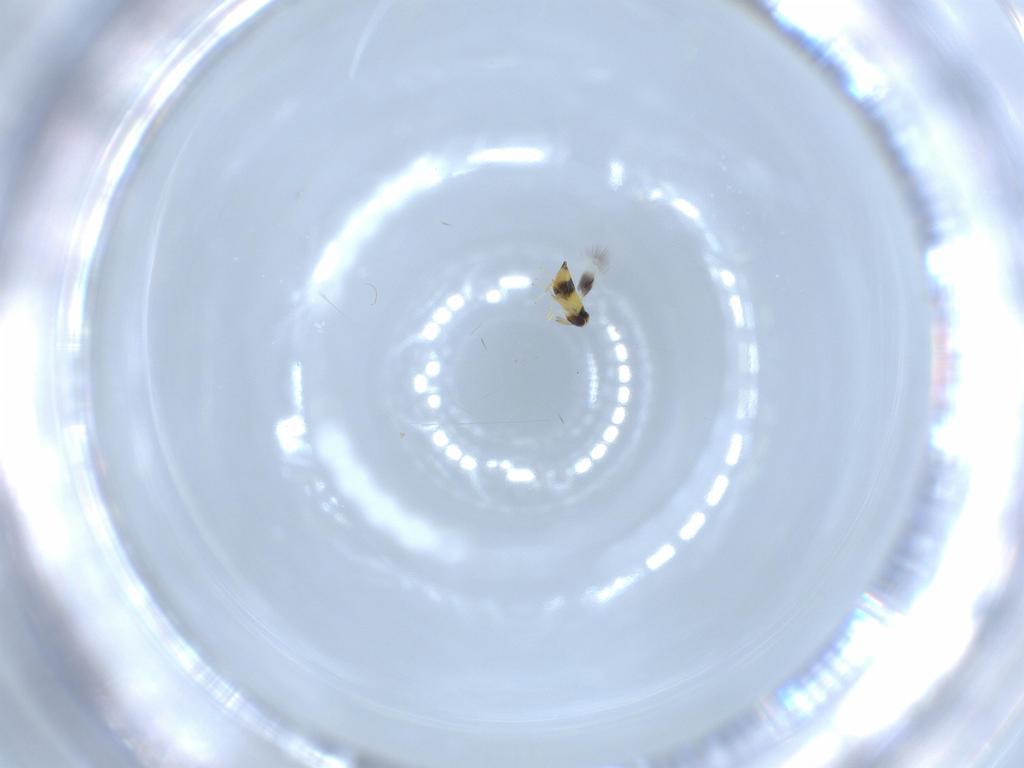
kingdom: Animalia
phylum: Arthropoda
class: Insecta
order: Hymenoptera
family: Signiphoridae
